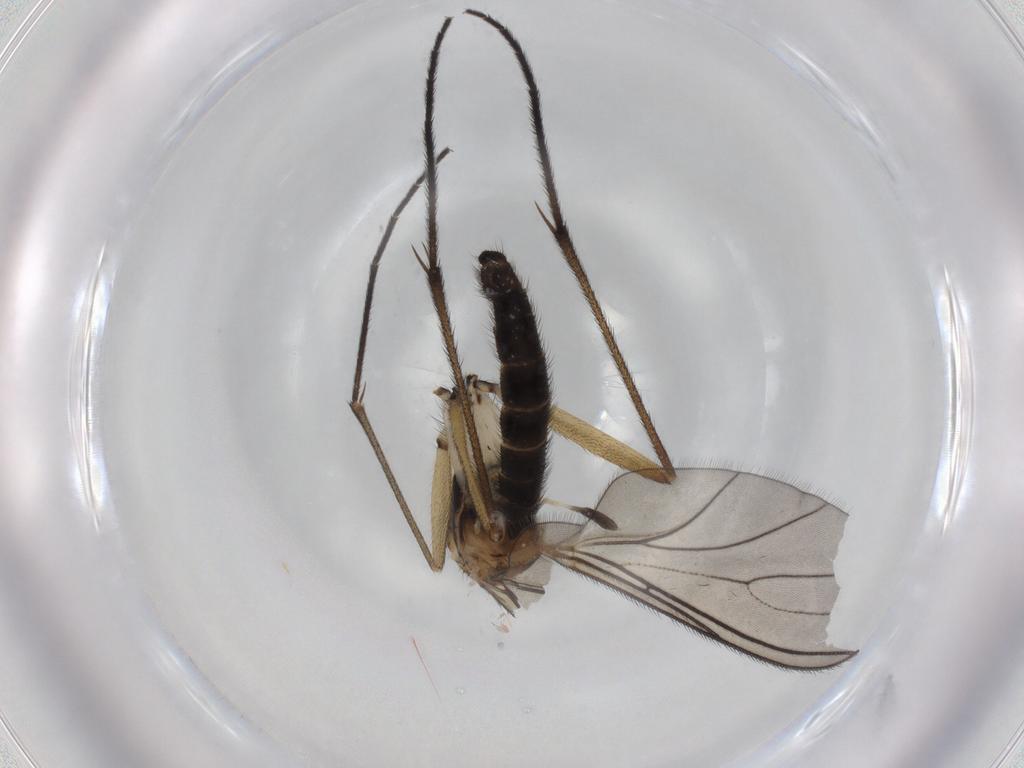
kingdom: Animalia
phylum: Arthropoda
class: Insecta
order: Diptera
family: Sciaridae
